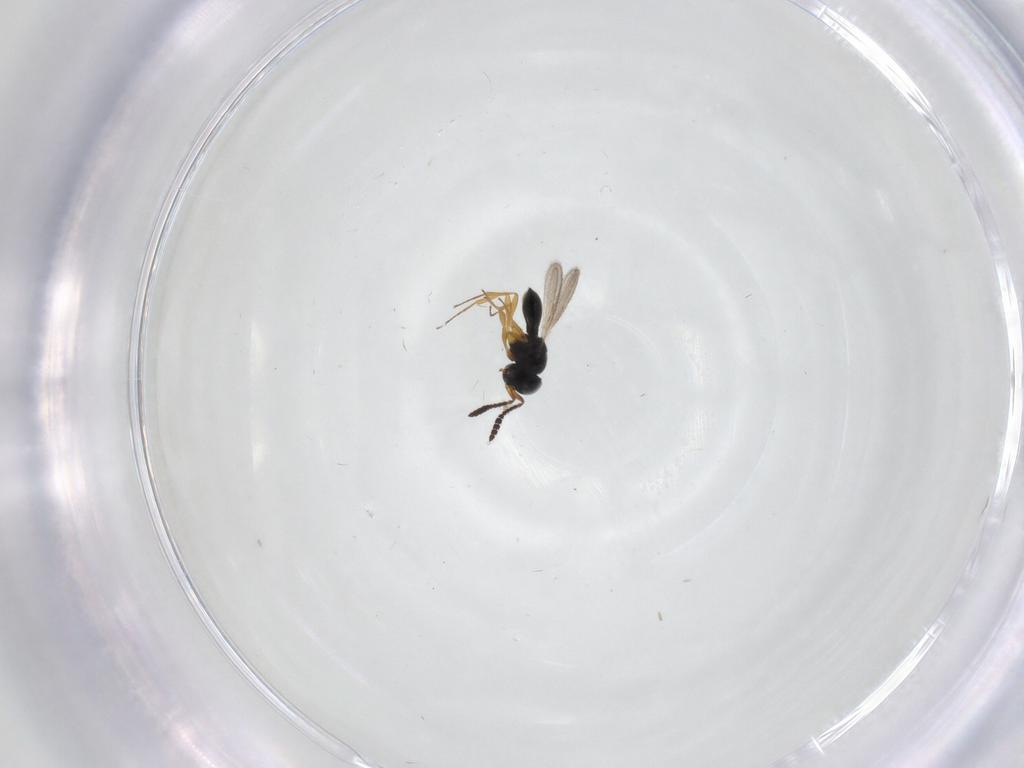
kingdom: Animalia
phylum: Arthropoda
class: Insecta
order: Hymenoptera
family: Scelionidae
